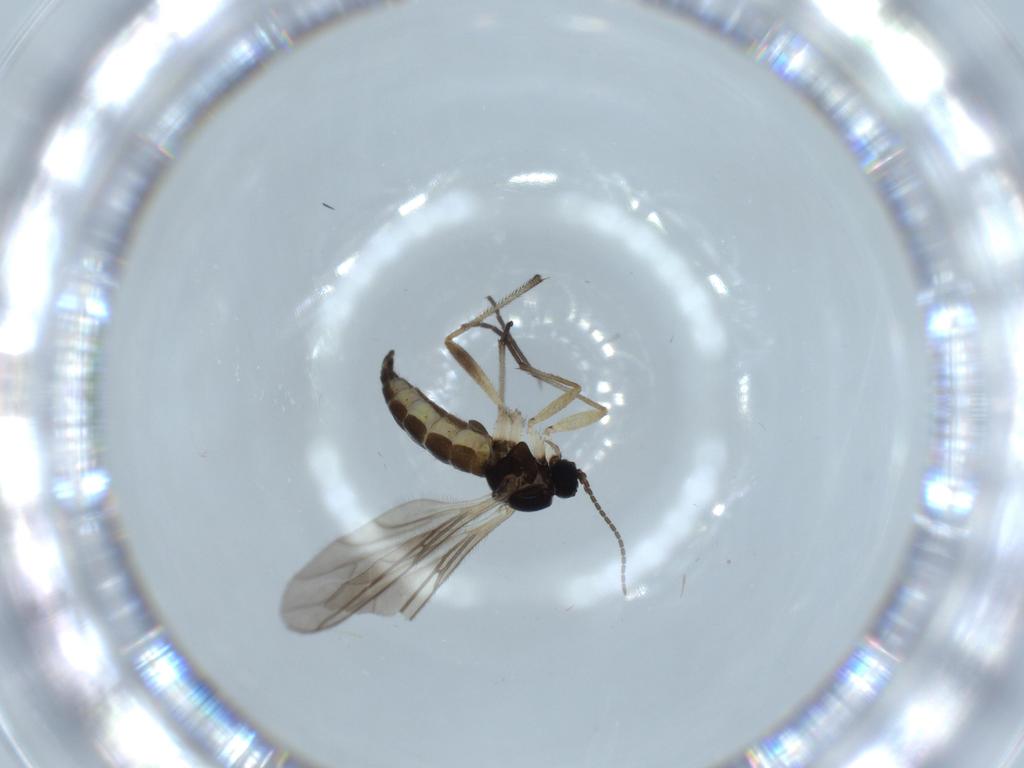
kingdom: Animalia
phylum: Arthropoda
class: Insecta
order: Diptera
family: Sciaridae
